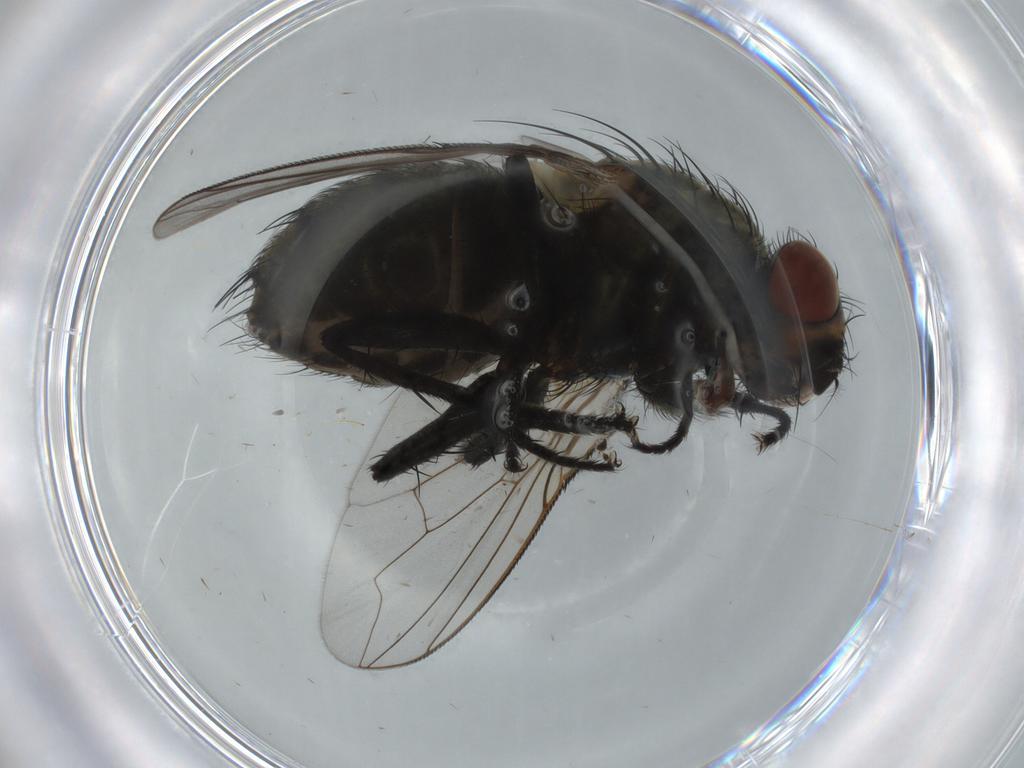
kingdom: Animalia
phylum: Arthropoda
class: Insecta
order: Diptera
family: Sarcophagidae
